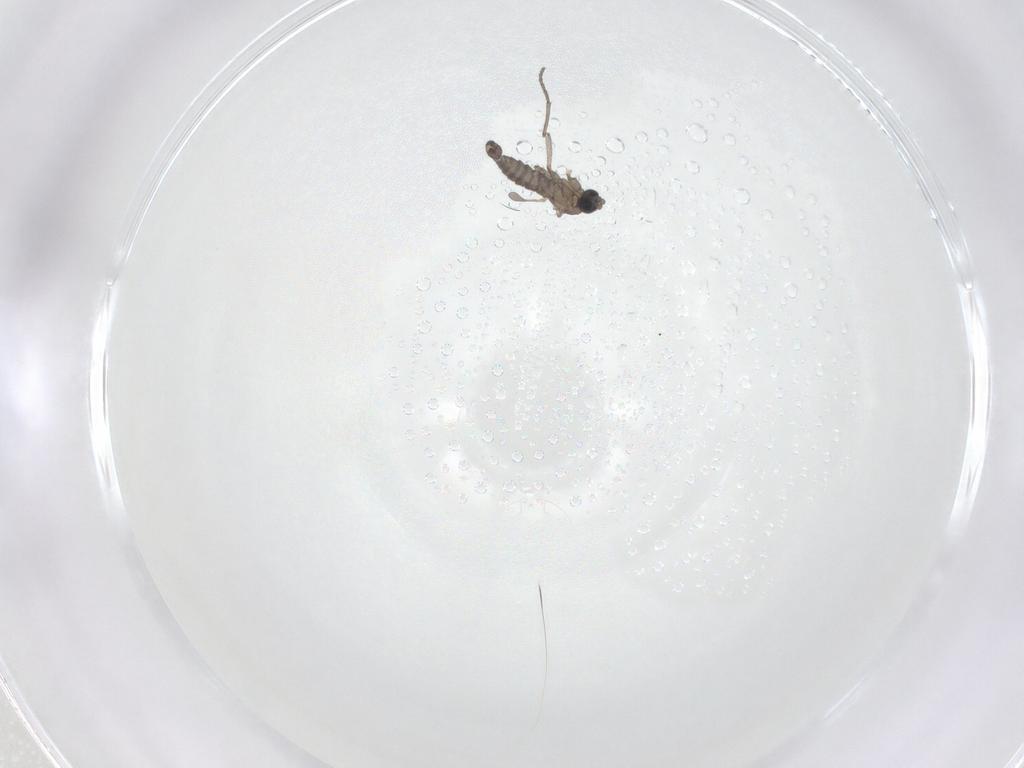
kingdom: Animalia
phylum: Arthropoda
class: Insecta
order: Diptera
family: Sciaridae
